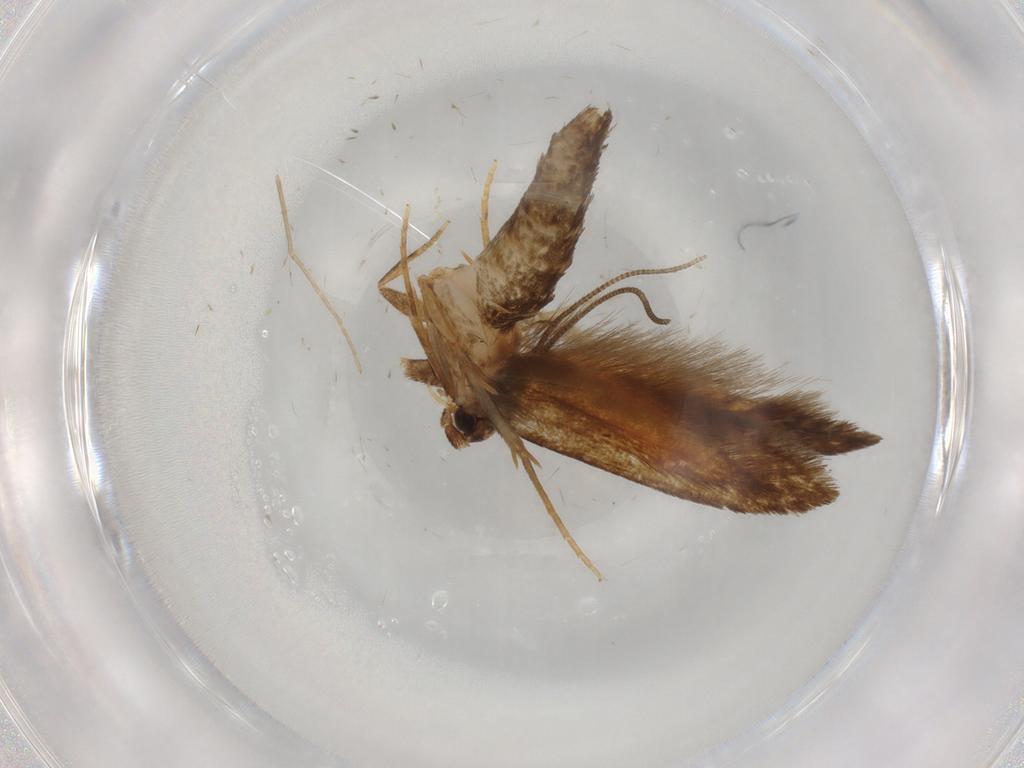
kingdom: Animalia
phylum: Arthropoda
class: Insecta
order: Lepidoptera
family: Tineidae
